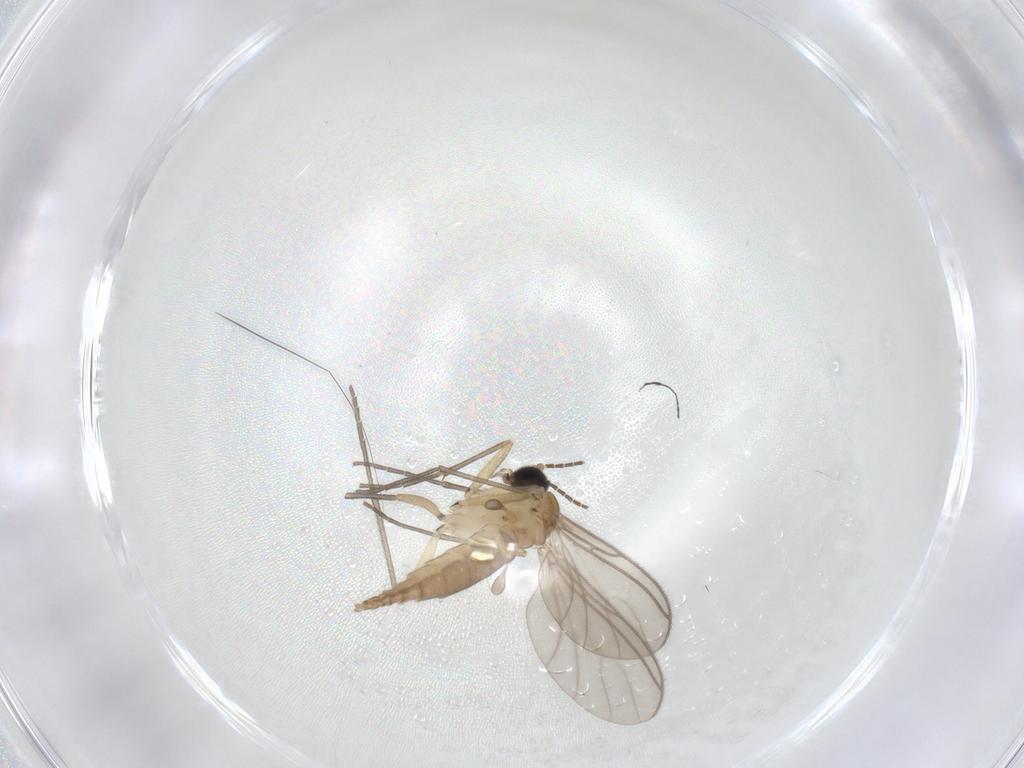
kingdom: Animalia
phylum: Arthropoda
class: Insecta
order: Diptera
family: Sciaridae
